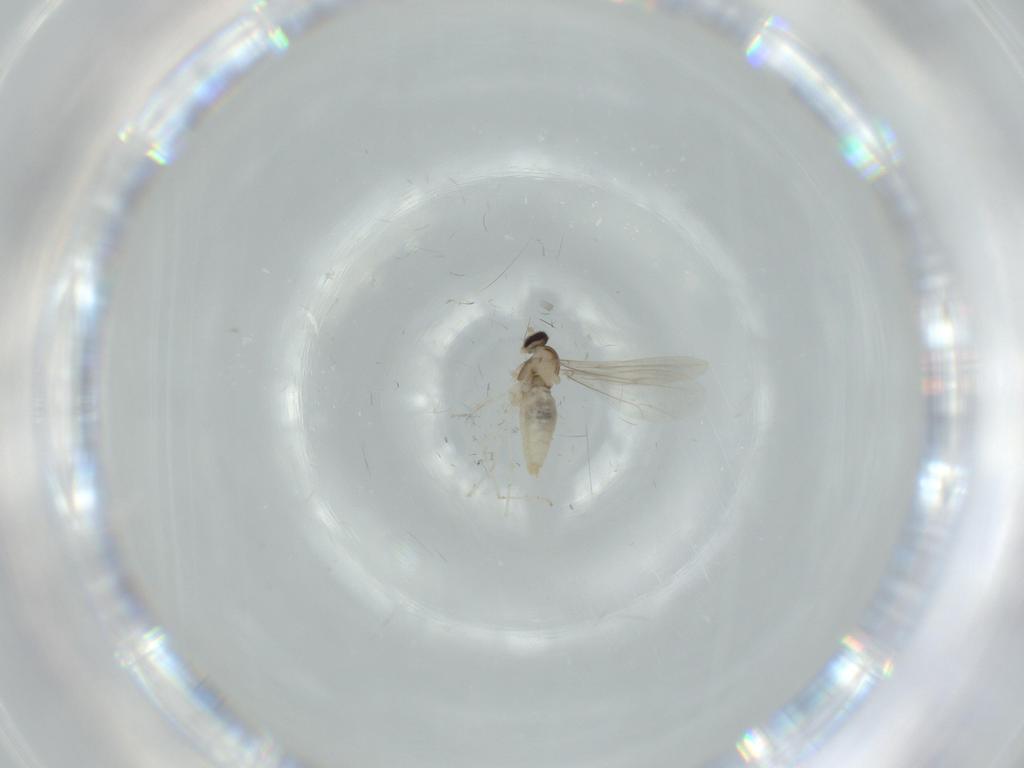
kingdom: Animalia
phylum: Arthropoda
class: Insecta
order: Diptera
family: Cecidomyiidae
